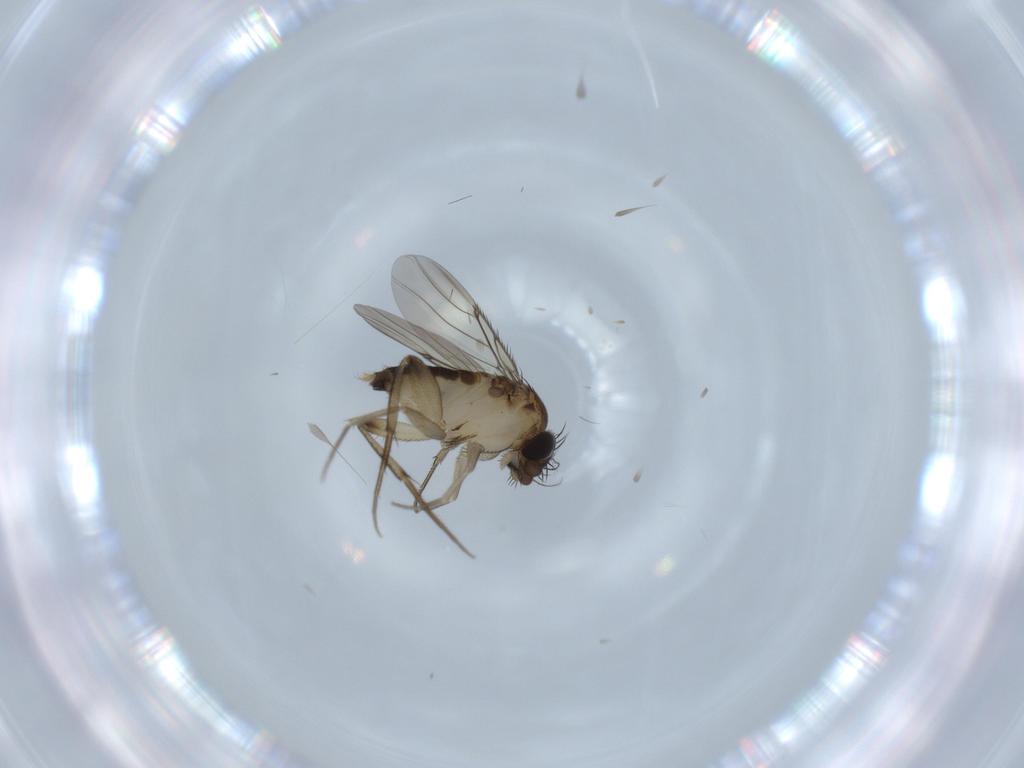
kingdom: Animalia
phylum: Arthropoda
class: Insecta
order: Diptera
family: Phoridae
